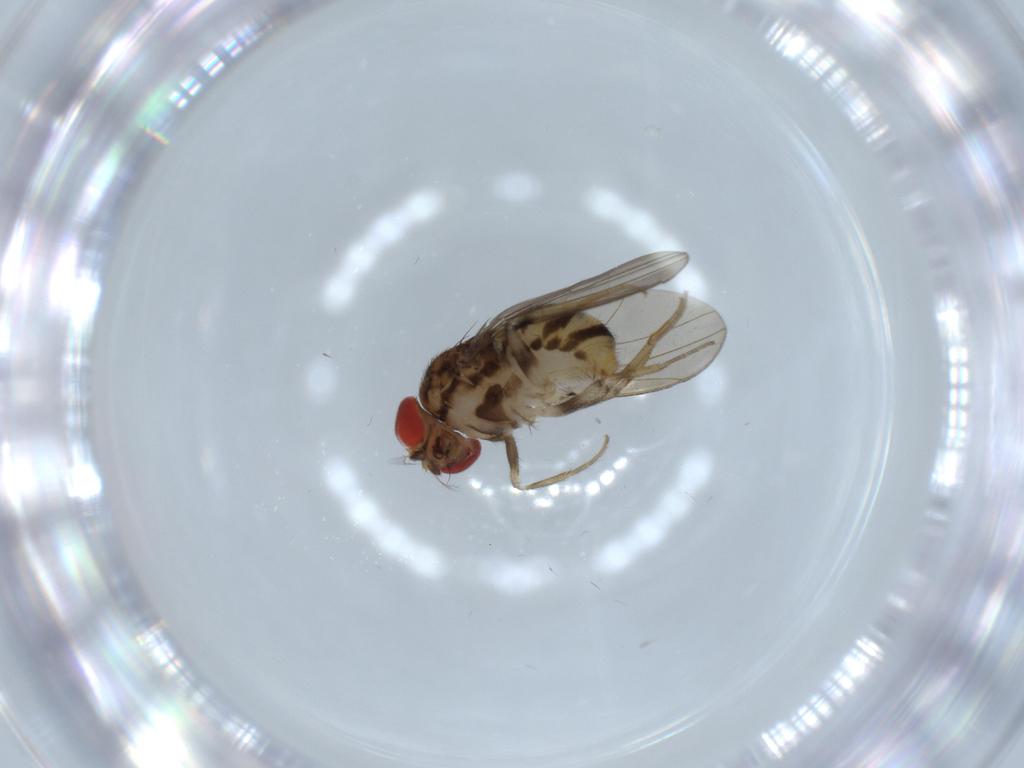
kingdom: Animalia
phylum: Arthropoda
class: Insecta
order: Diptera
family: Drosophilidae
